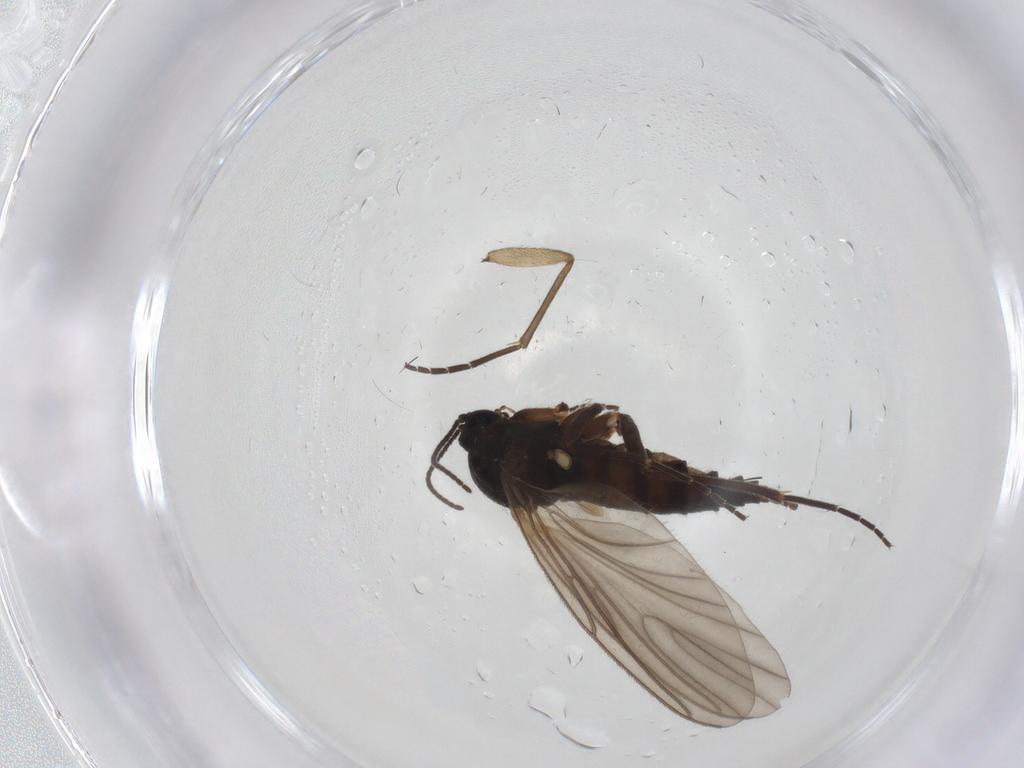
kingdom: Animalia
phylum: Arthropoda
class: Insecta
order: Diptera
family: Sciaridae
